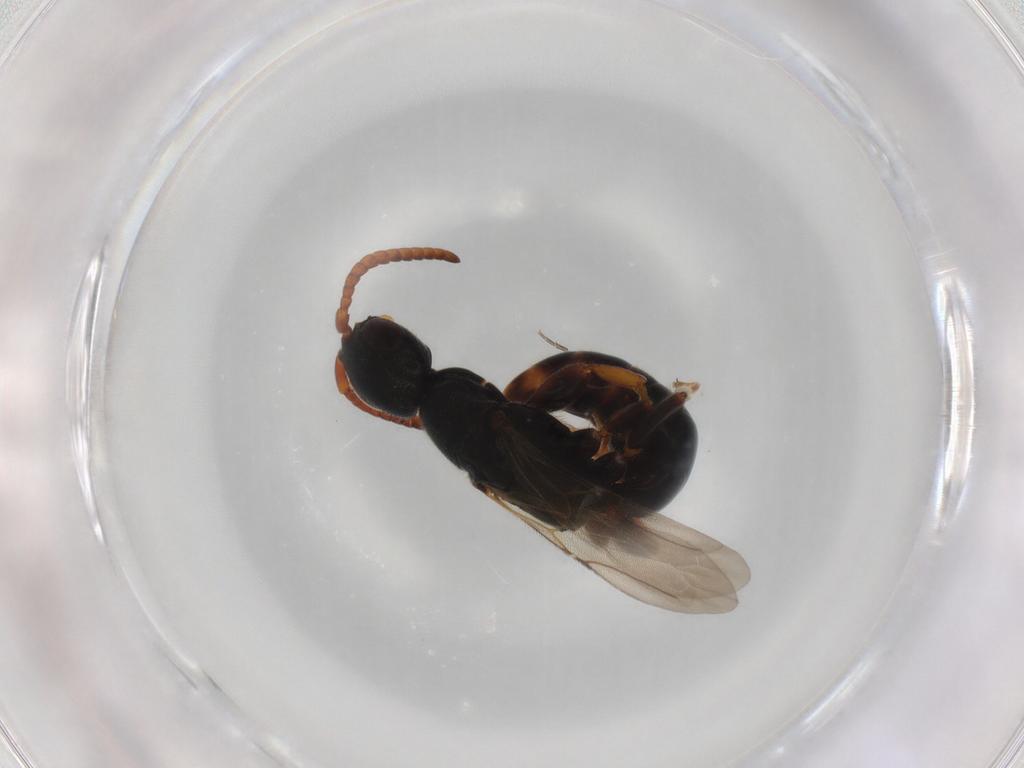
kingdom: Animalia
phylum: Arthropoda
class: Insecta
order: Hymenoptera
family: Bethylidae
